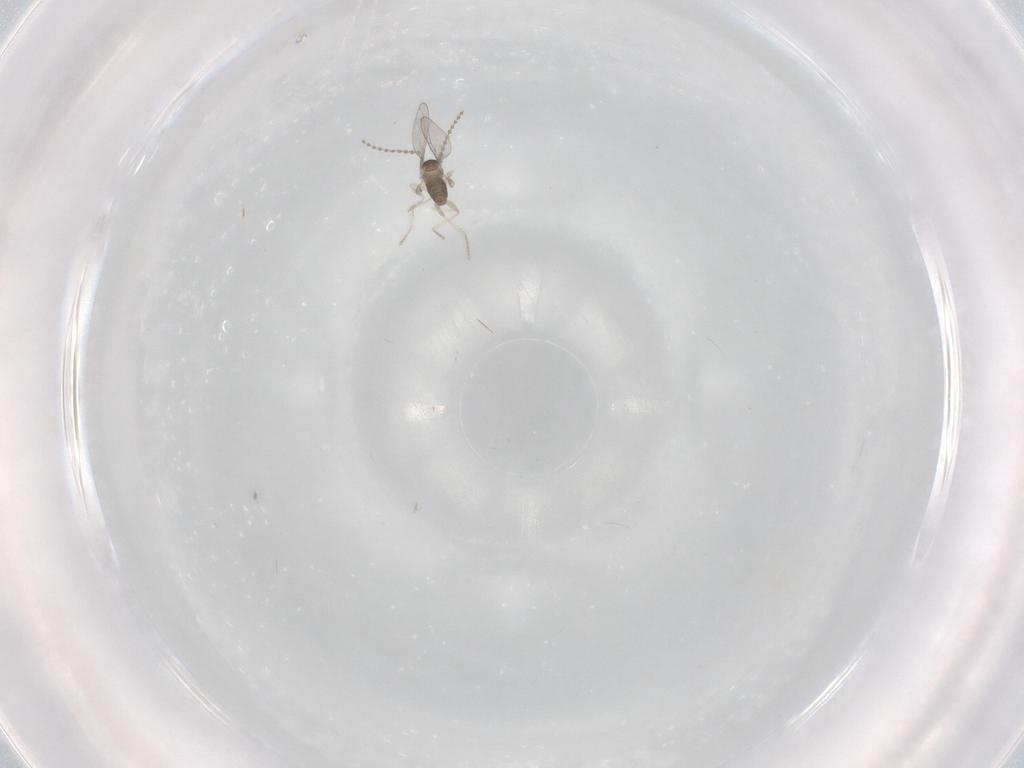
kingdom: Animalia
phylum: Arthropoda
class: Insecta
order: Diptera
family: Cecidomyiidae
